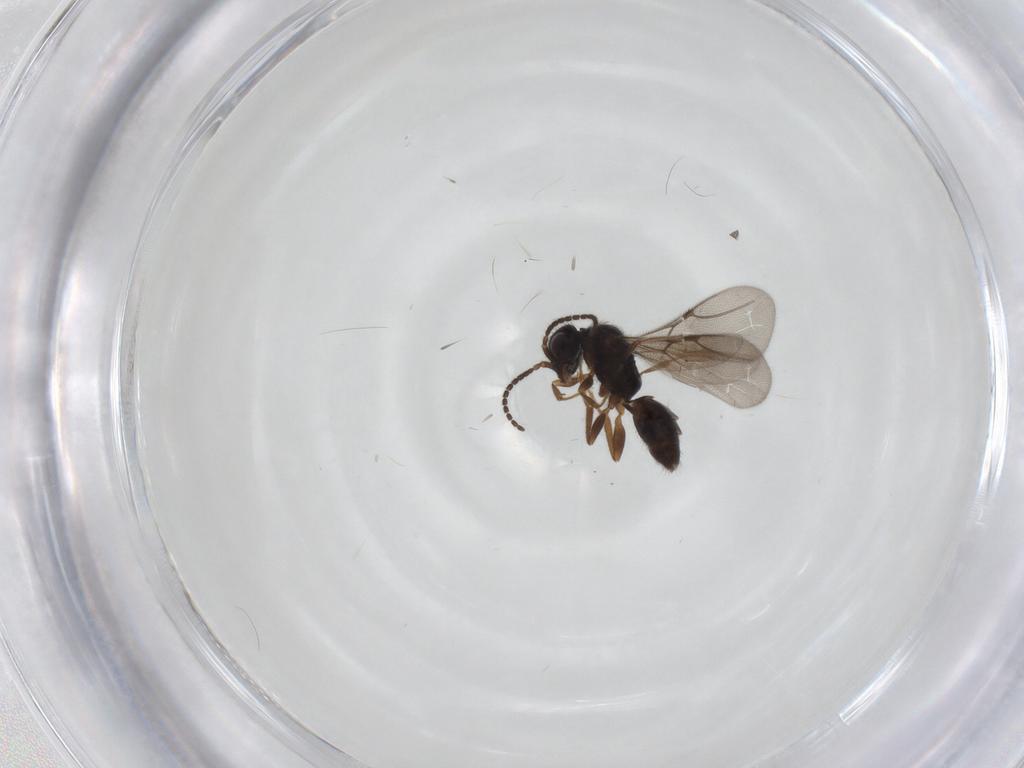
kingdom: Animalia
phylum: Arthropoda
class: Insecta
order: Hymenoptera
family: Bethylidae
